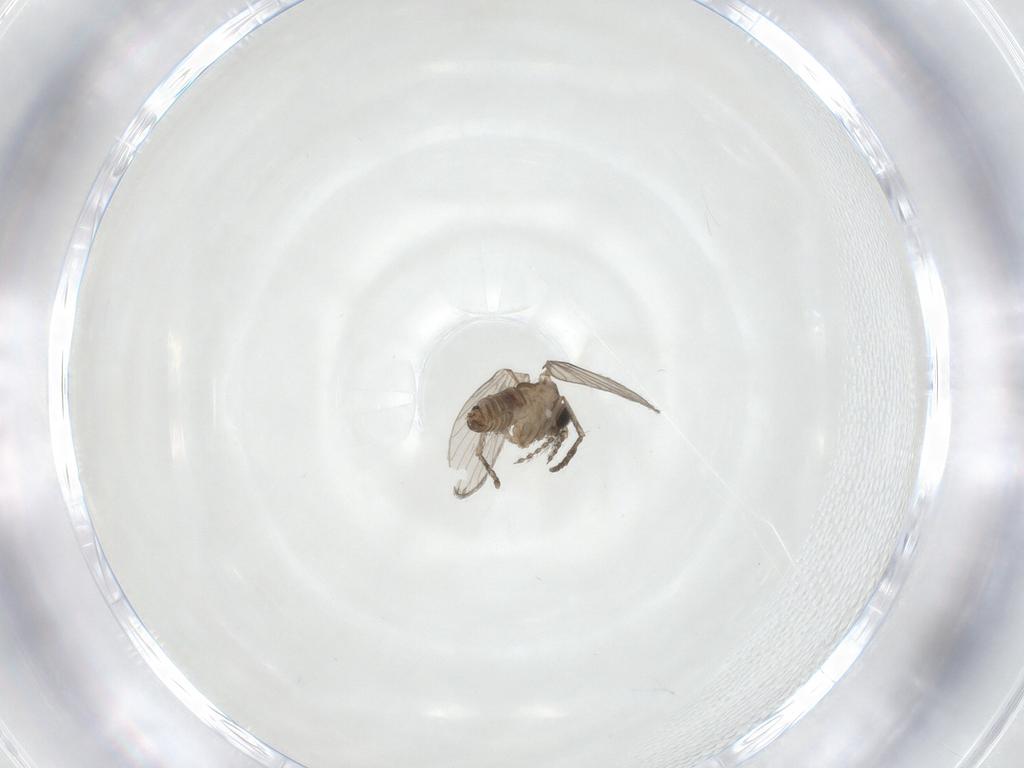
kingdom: Animalia
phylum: Arthropoda
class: Insecta
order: Diptera
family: Psychodidae
